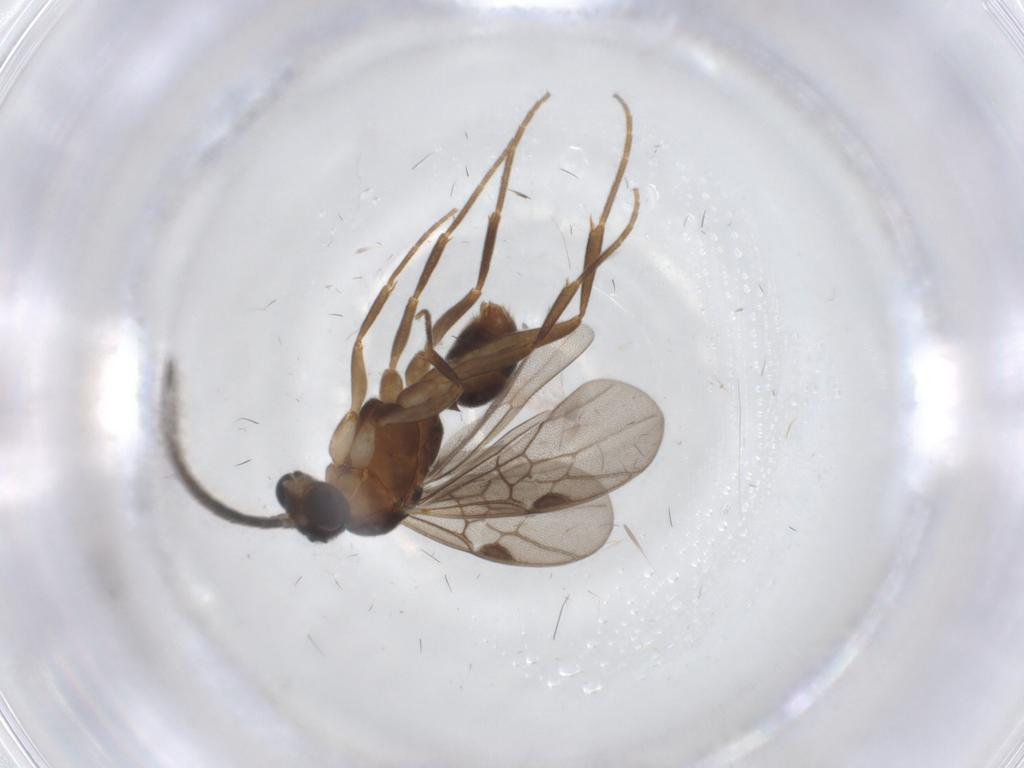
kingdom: Animalia
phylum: Arthropoda
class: Insecta
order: Hymenoptera
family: Formicidae
